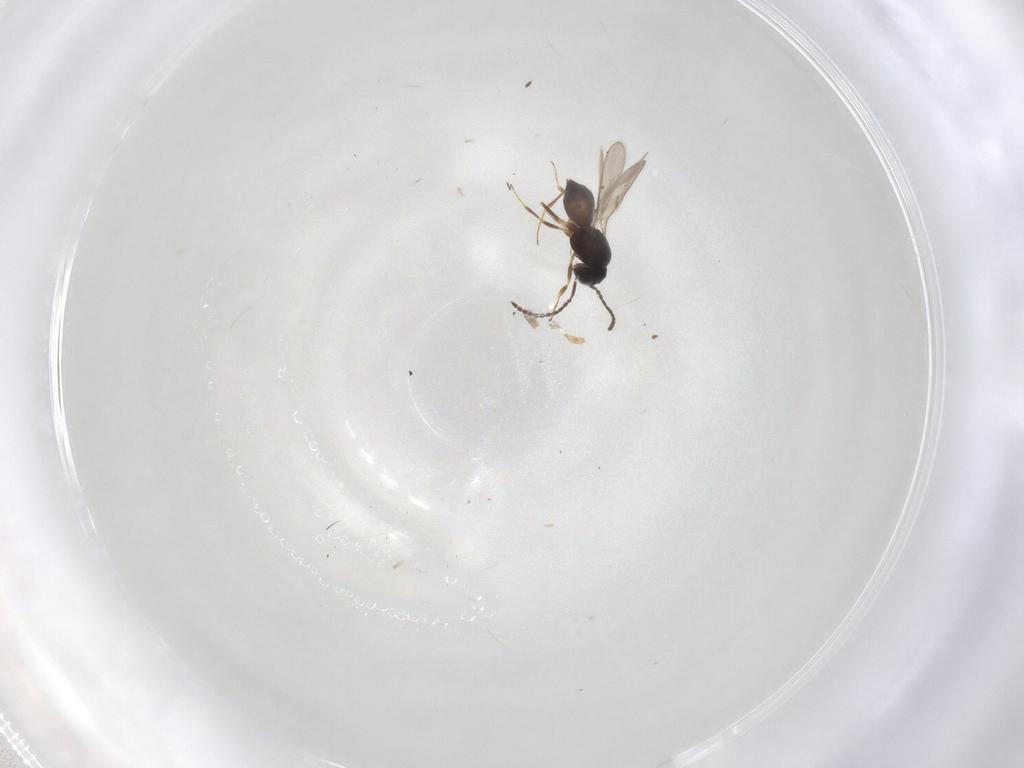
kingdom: Animalia
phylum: Arthropoda
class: Insecta
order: Hymenoptera
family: Scelionidae
